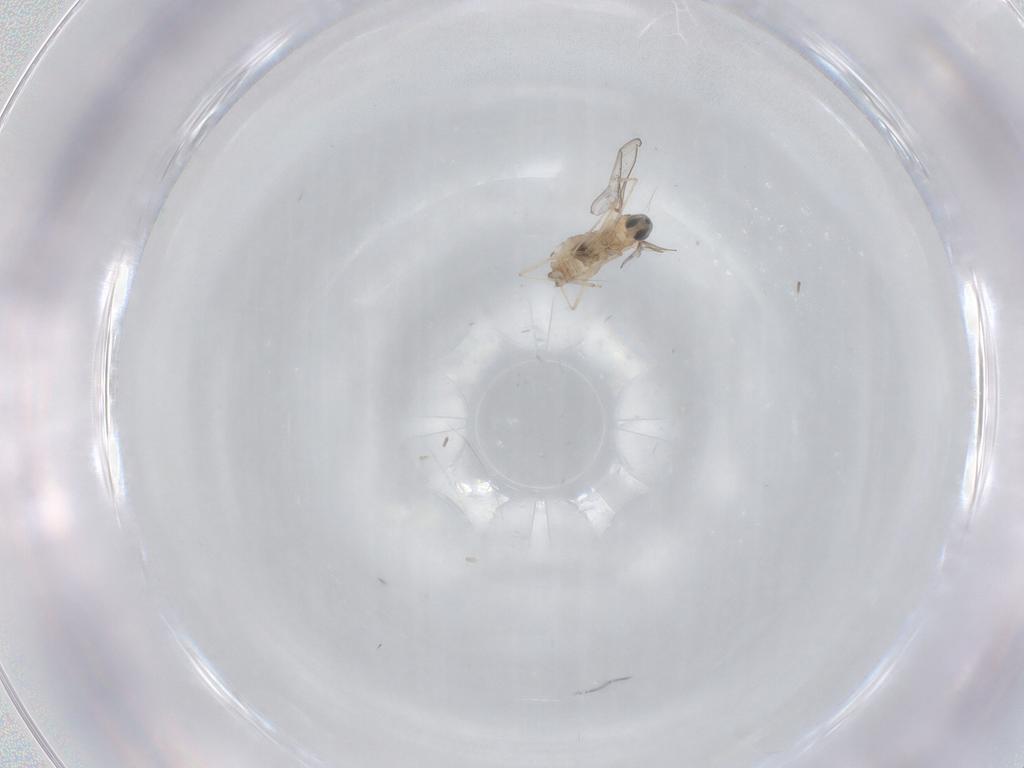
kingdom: Animalia
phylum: Arthropoda
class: Insecta
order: Diptera
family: Cecidomyiidae
